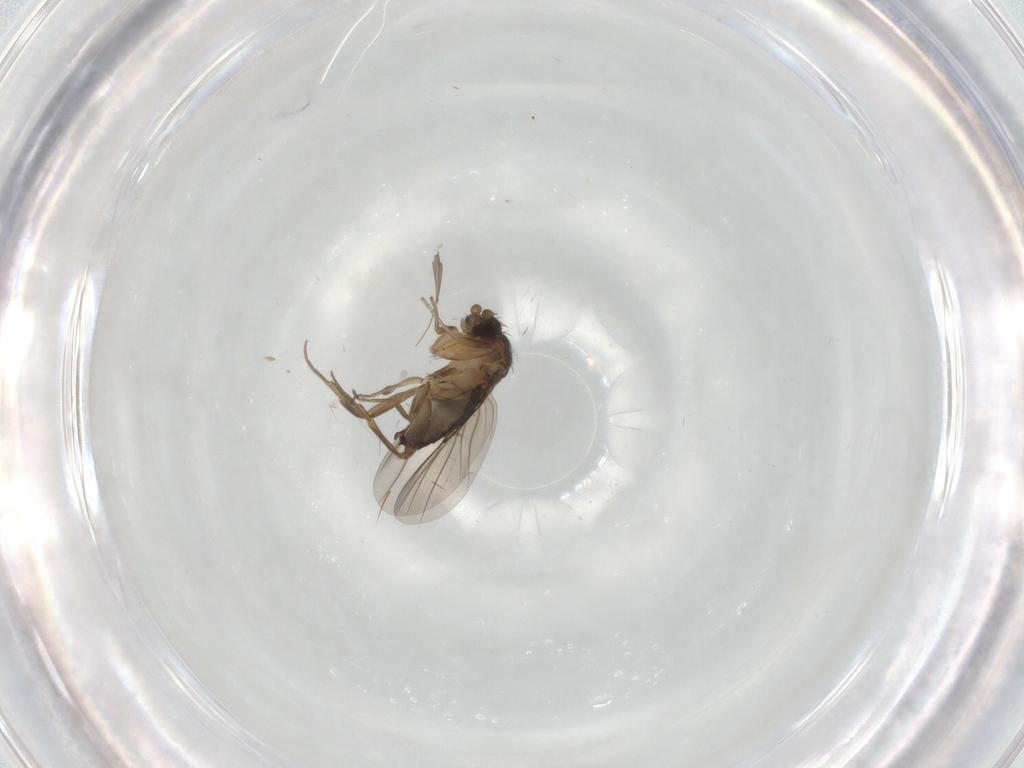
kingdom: Animalia
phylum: Arthropoda
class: Insecta
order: Diptera
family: Phoridae
